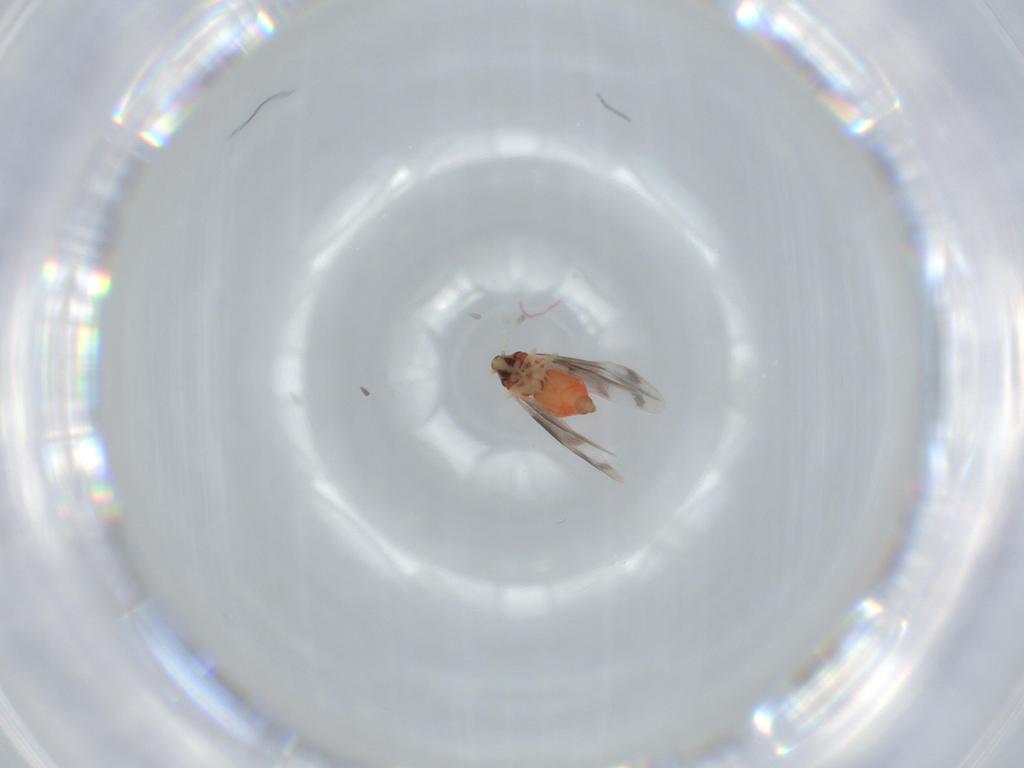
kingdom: Animalia
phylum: Arthropoda
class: Insecta
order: Hemiptera
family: Aleyrodidae
